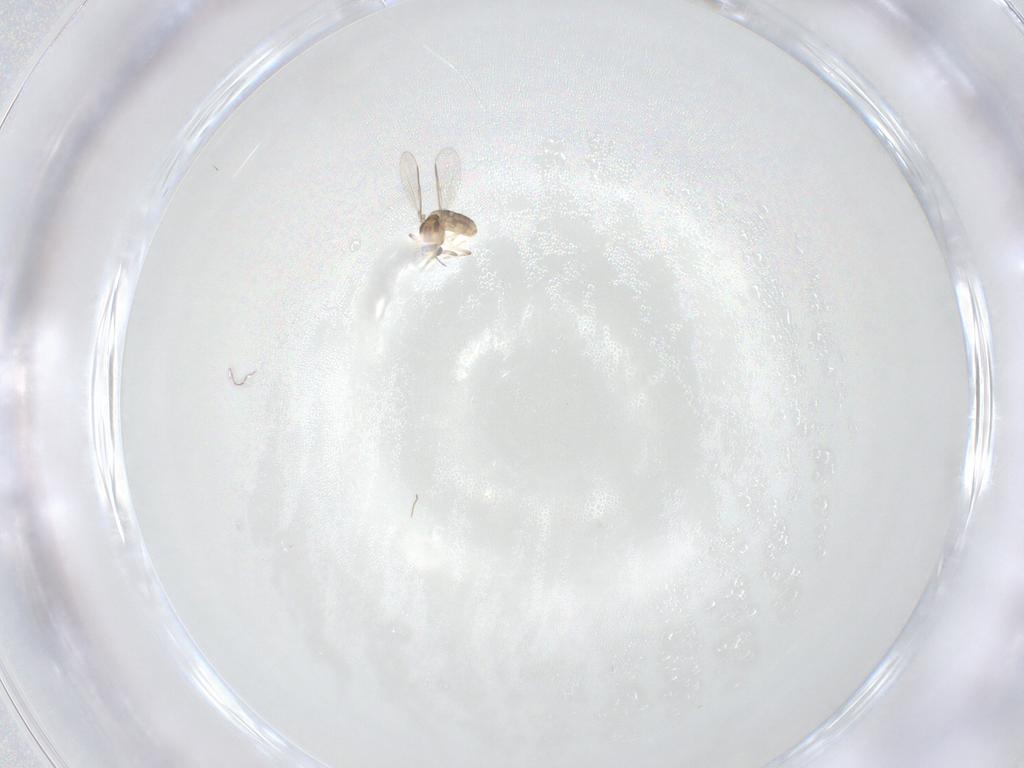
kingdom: Animalia
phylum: Arthropoda
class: Insecta
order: Diptera
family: Chironomidae
